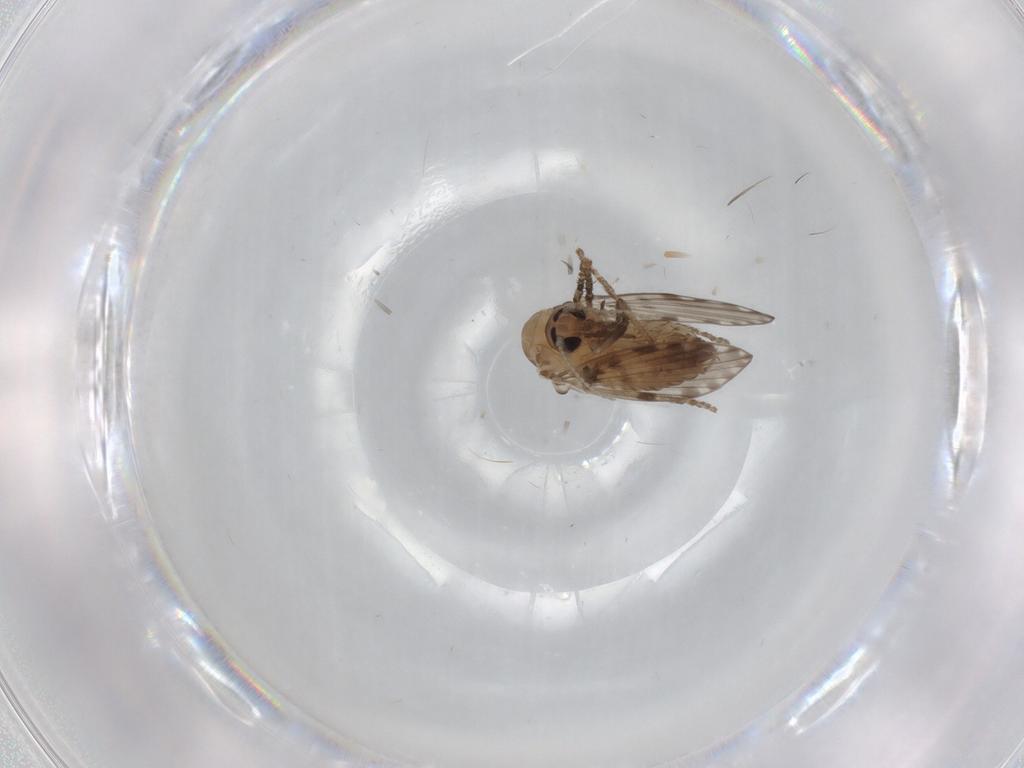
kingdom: Animalia
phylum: Arthropoda
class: Insecta
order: Diptera
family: Psychodidae
